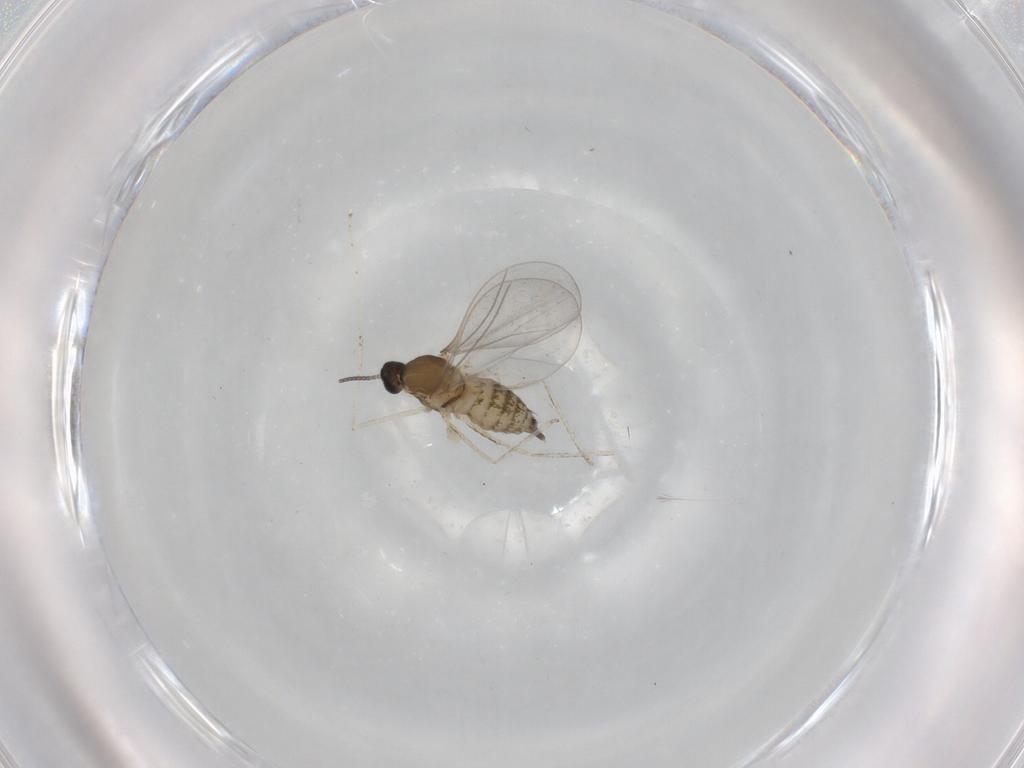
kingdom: Animalia
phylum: Arthropoda
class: Insecta
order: Diptera
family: Cecidomyiidae
